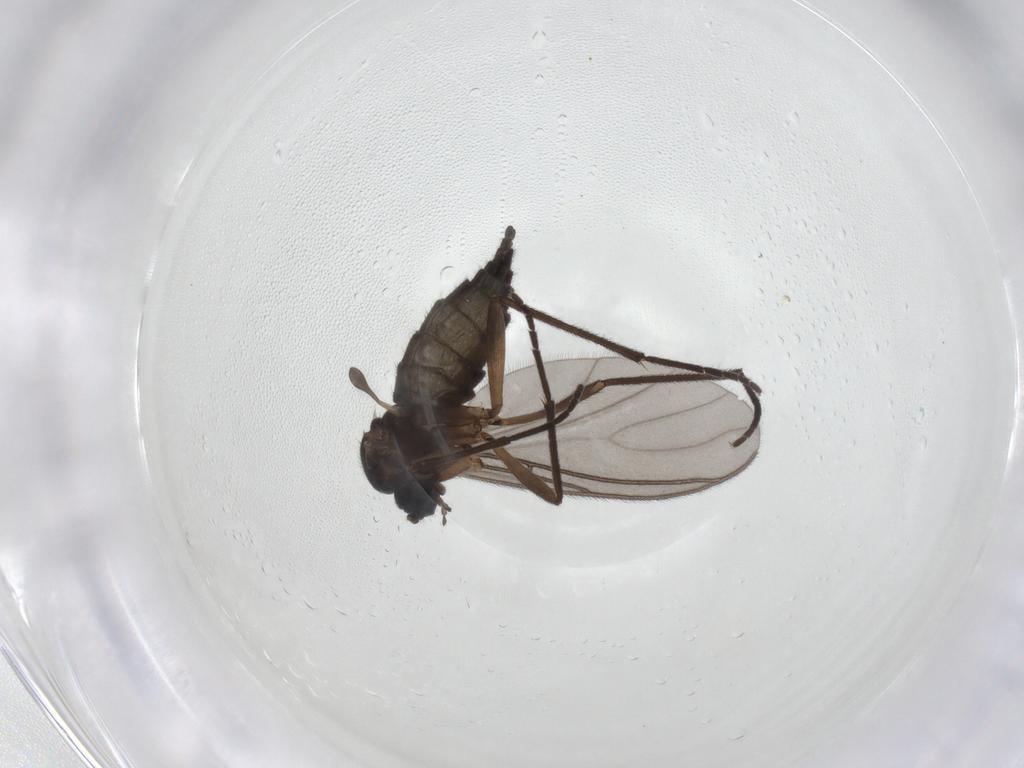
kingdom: Animalia
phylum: Arthropoda
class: Insecta
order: Diptera
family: Sciaridae
